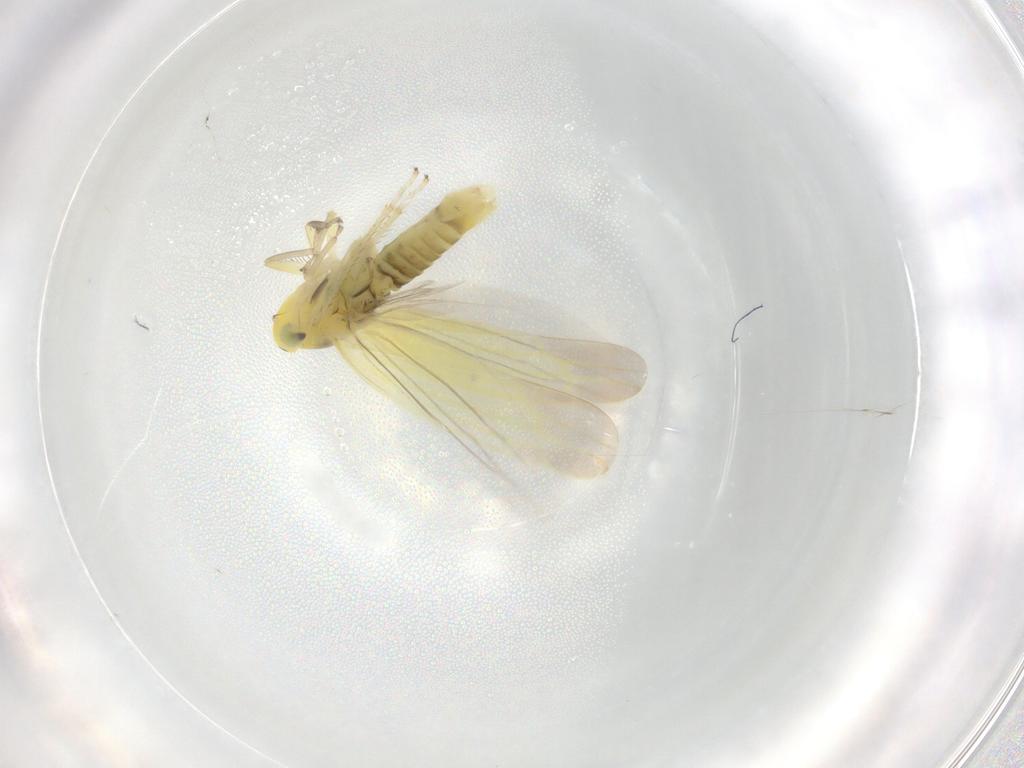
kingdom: Animalia
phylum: Arthropoda
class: Insecta
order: Hemiptera
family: Cicadellidae
